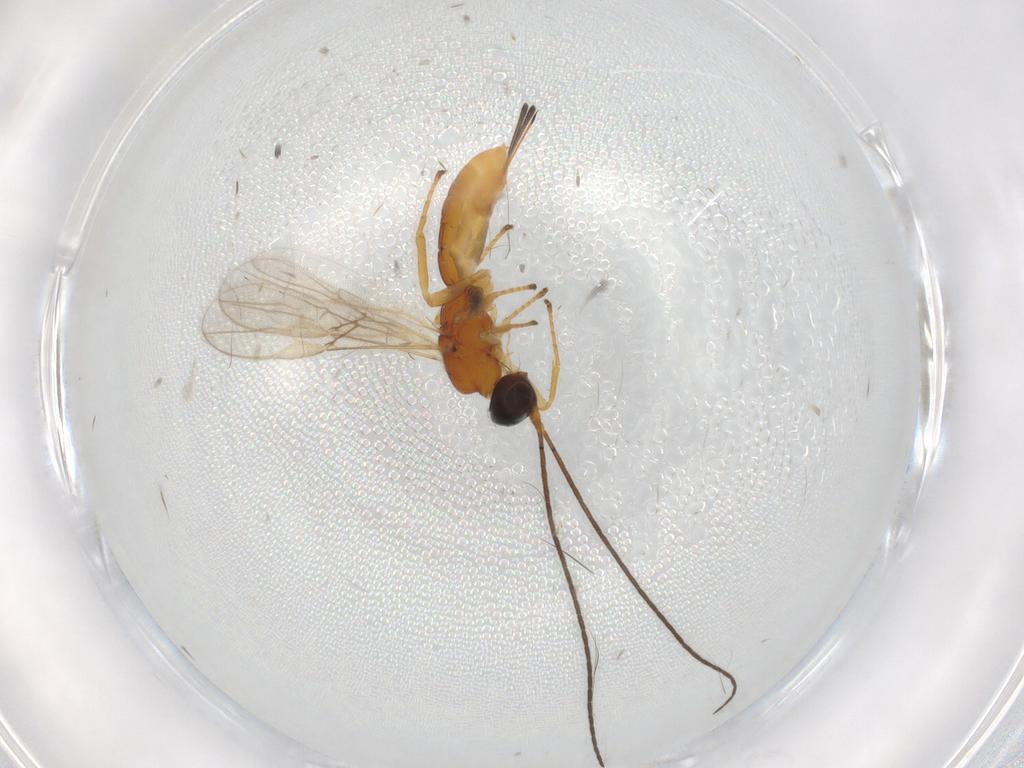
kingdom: Animalia
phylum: Arthropoda
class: Insecta
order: Hymenoptera
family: Braconidae
